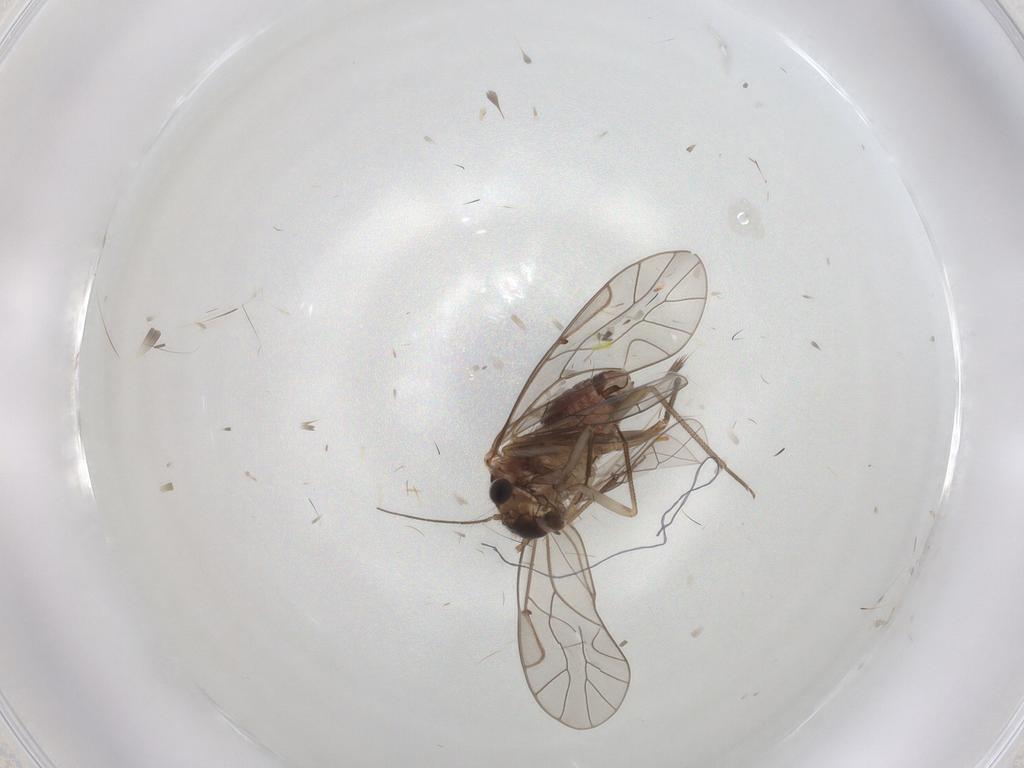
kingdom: Animalia
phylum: Arthropoda
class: Insecta
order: Psocodea
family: Lachesillidae
